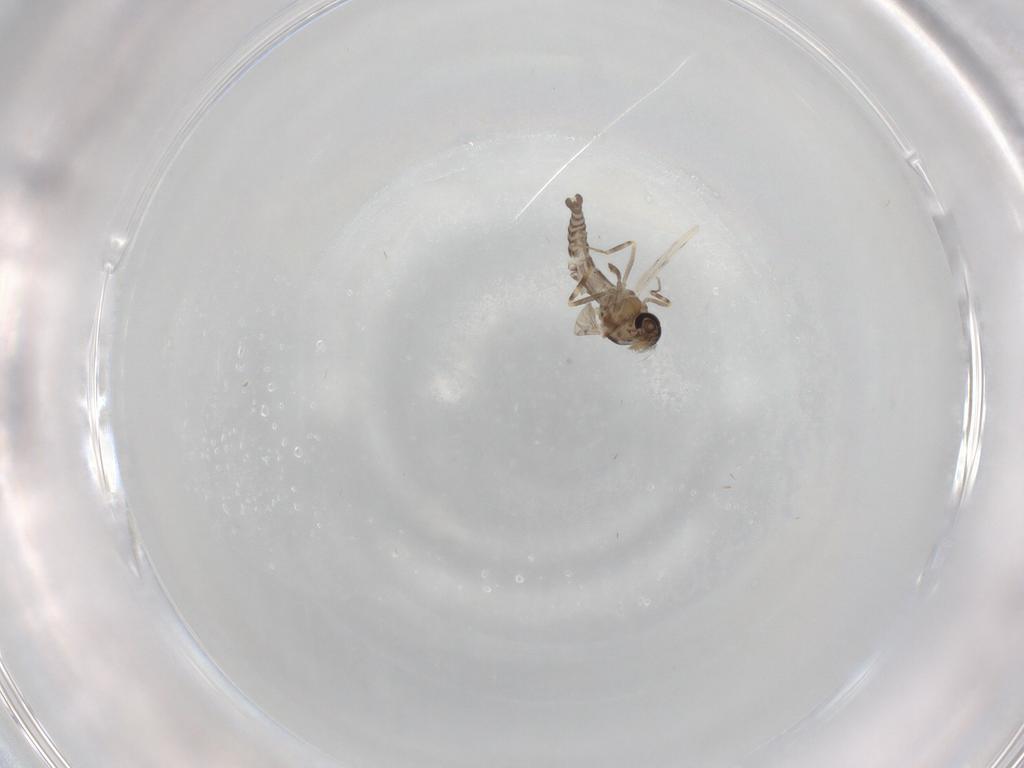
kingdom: Animalia
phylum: Arthropoda
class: Insecta
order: Diptera
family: Ceratopogonidae
